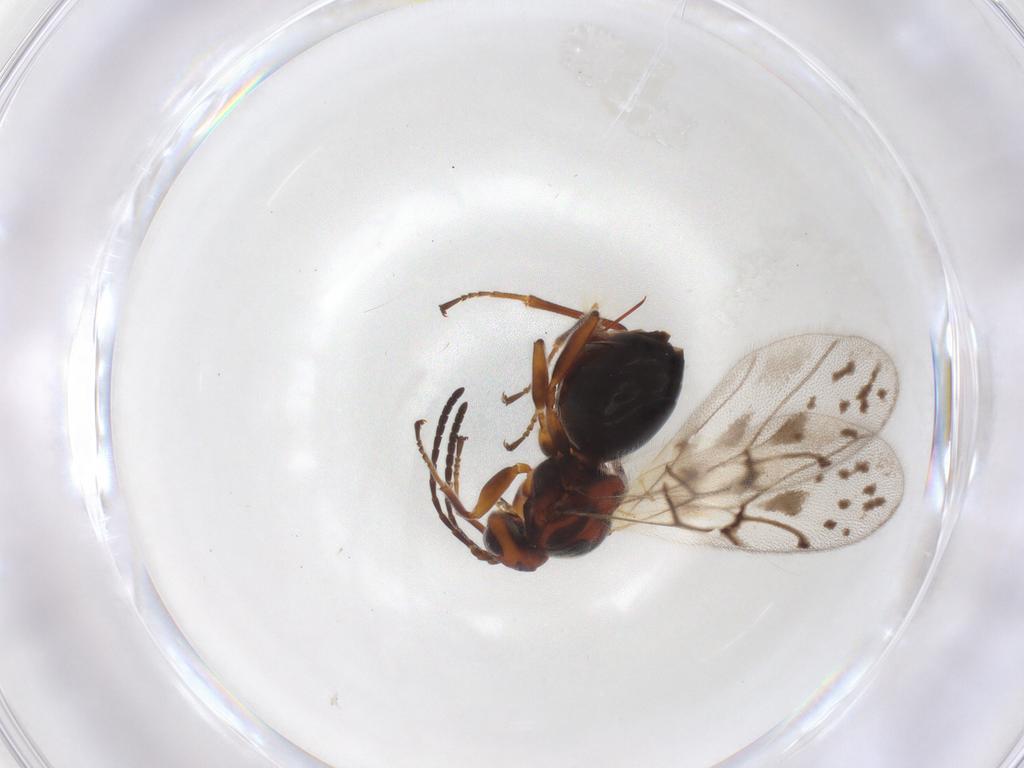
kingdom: Animalia
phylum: Arthropoda
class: Insecta
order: Hymenoptera
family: Cynipidae
